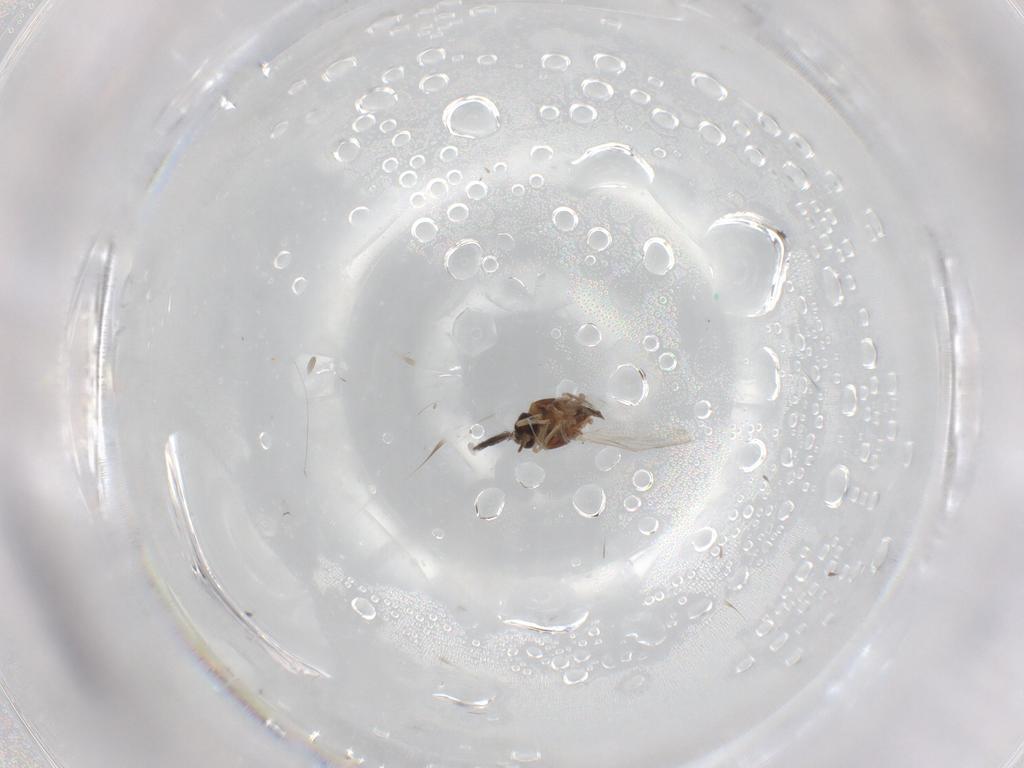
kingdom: Animalia
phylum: Arthropoda
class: Insecta
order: Diptera
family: Ceratopogonidae
